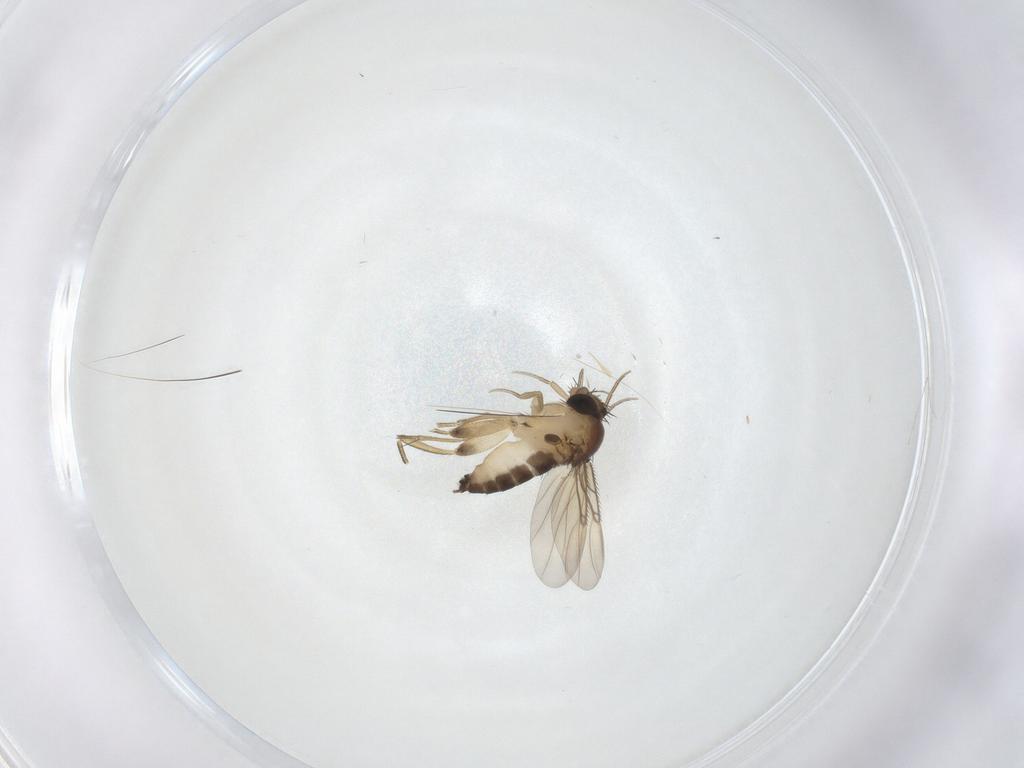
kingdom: Animalia
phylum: Arthropoda
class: Insecta
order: Diptera
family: Phoridae
